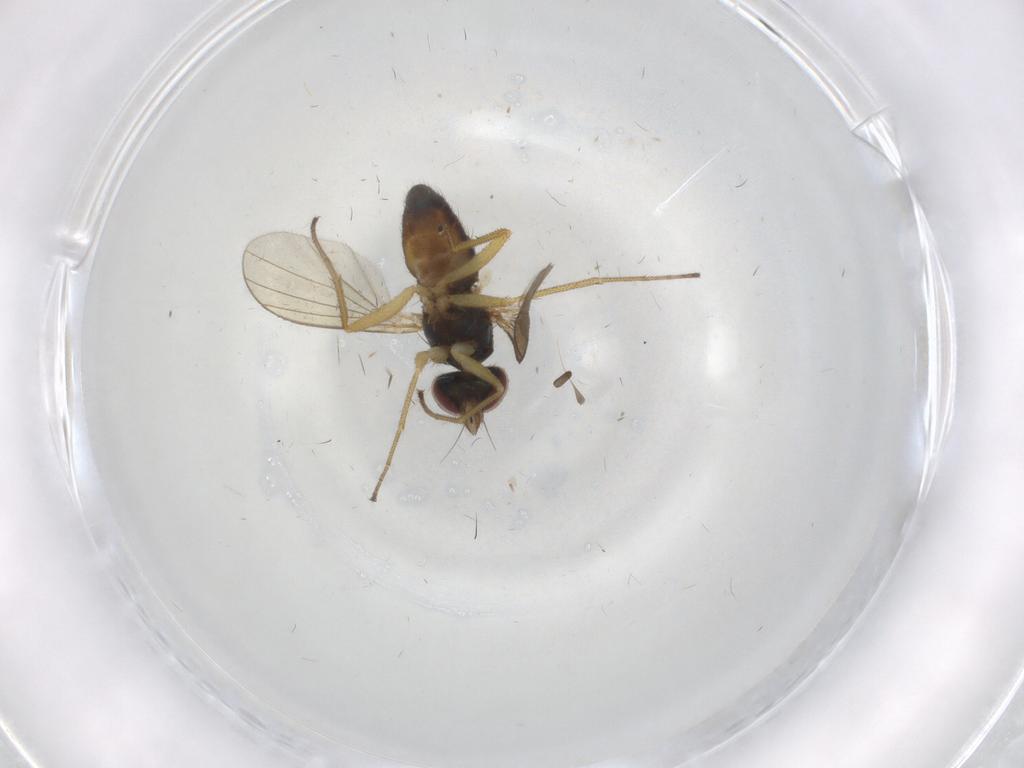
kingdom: Animalia
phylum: Arthropoda
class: Insecta
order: Diptera
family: Dolichopodidae
